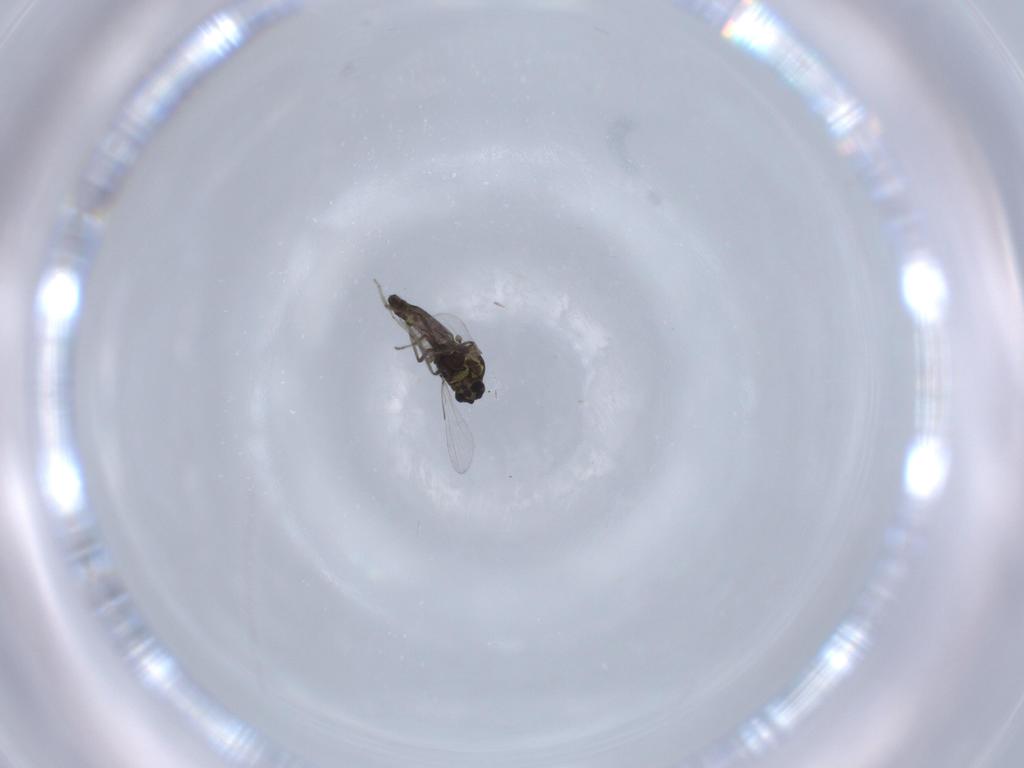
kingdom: Animalia
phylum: Arthropoda
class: Insecta
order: Diptera
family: Ceratopogonidae
